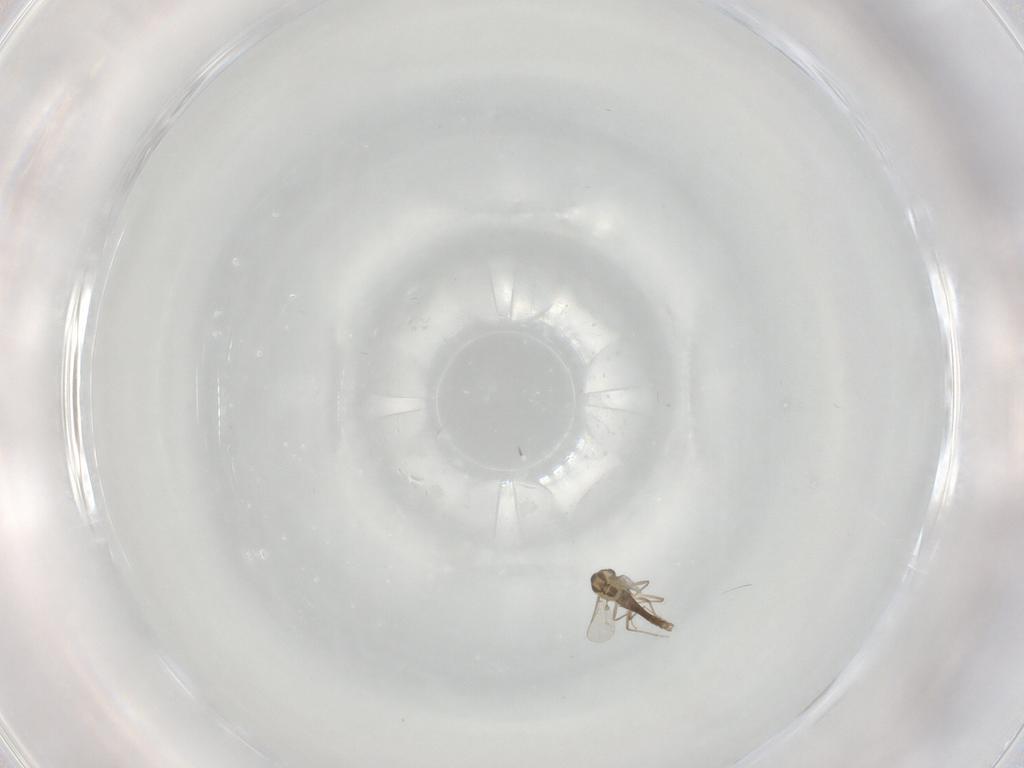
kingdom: Animalia
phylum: Arthropoda
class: Insecta
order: Diptera
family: Chironomidae
